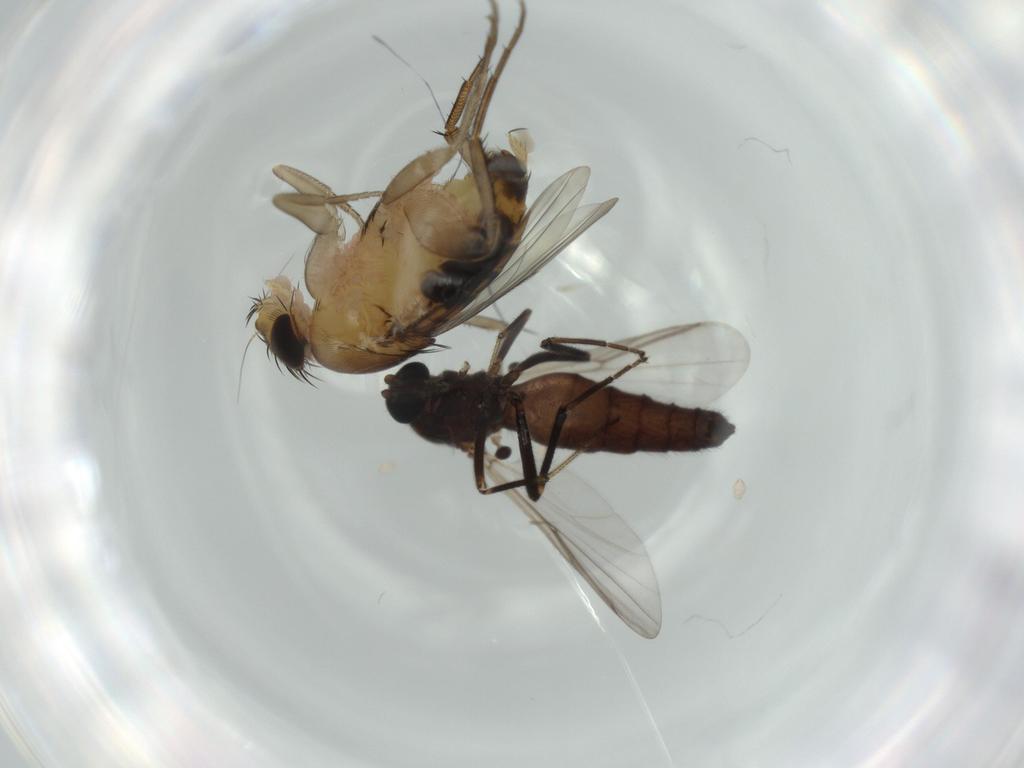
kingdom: Animalia
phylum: Arthropoda
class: Insecta
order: Diptera
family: Ceratopogonidae
